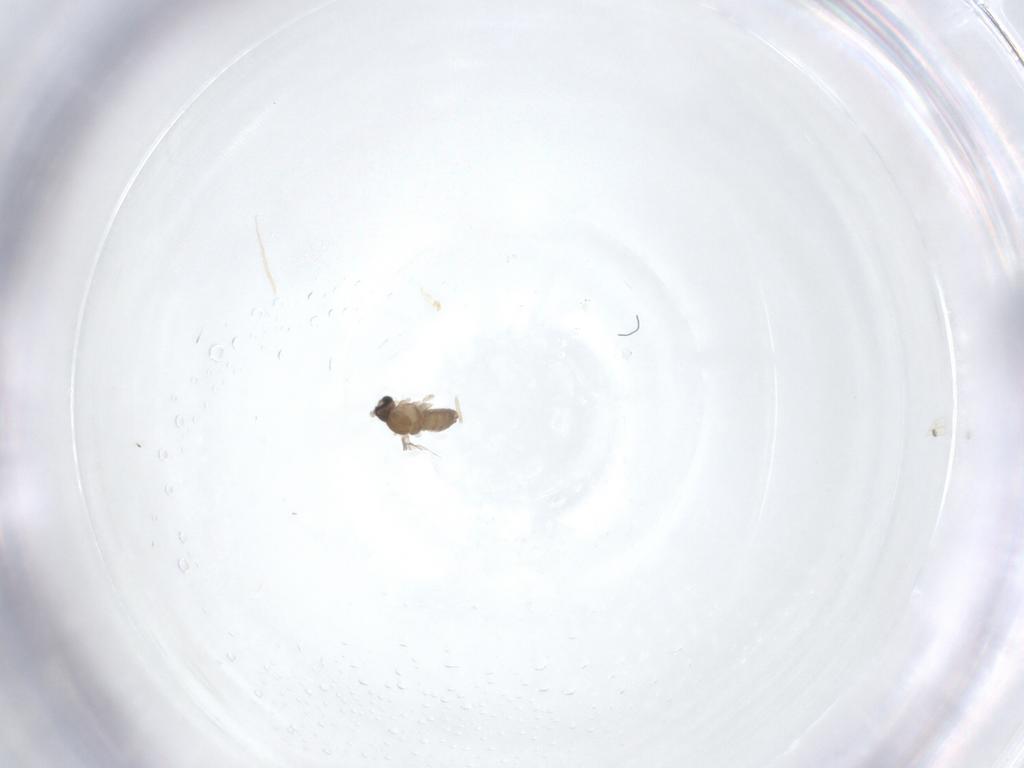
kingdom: Animalia
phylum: Arthropoda
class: Insecta
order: Diptera
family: Cecidomyiidae
